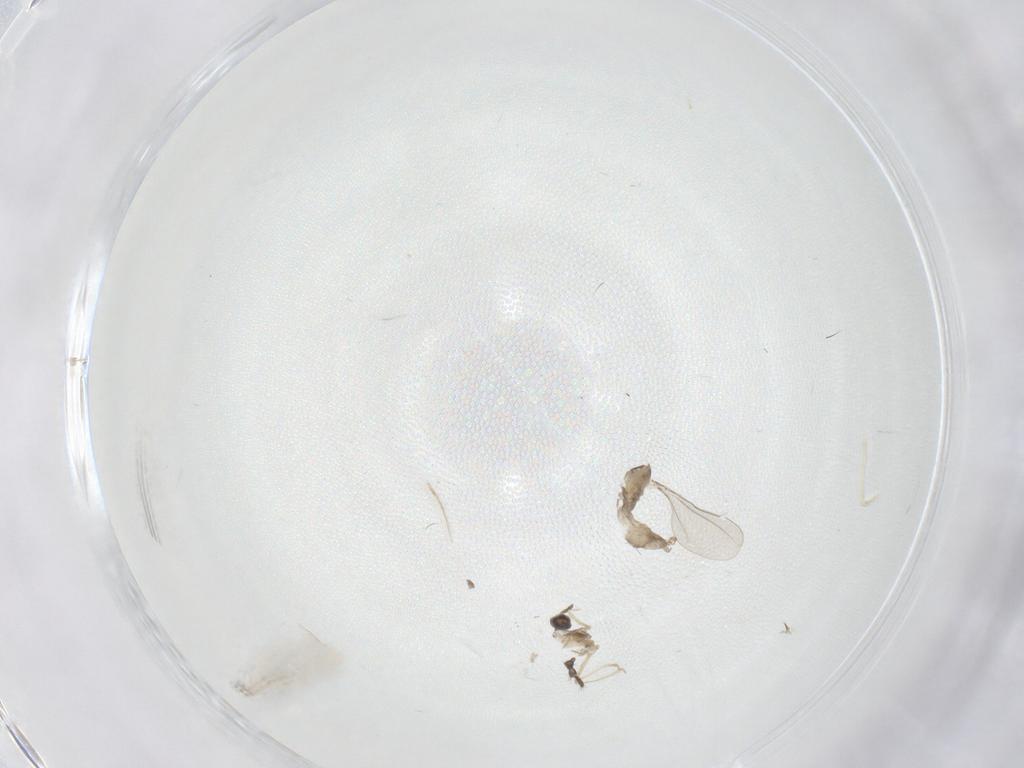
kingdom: Animalia
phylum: Arthropoda
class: Insecta
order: Diptera
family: Limoniidae
